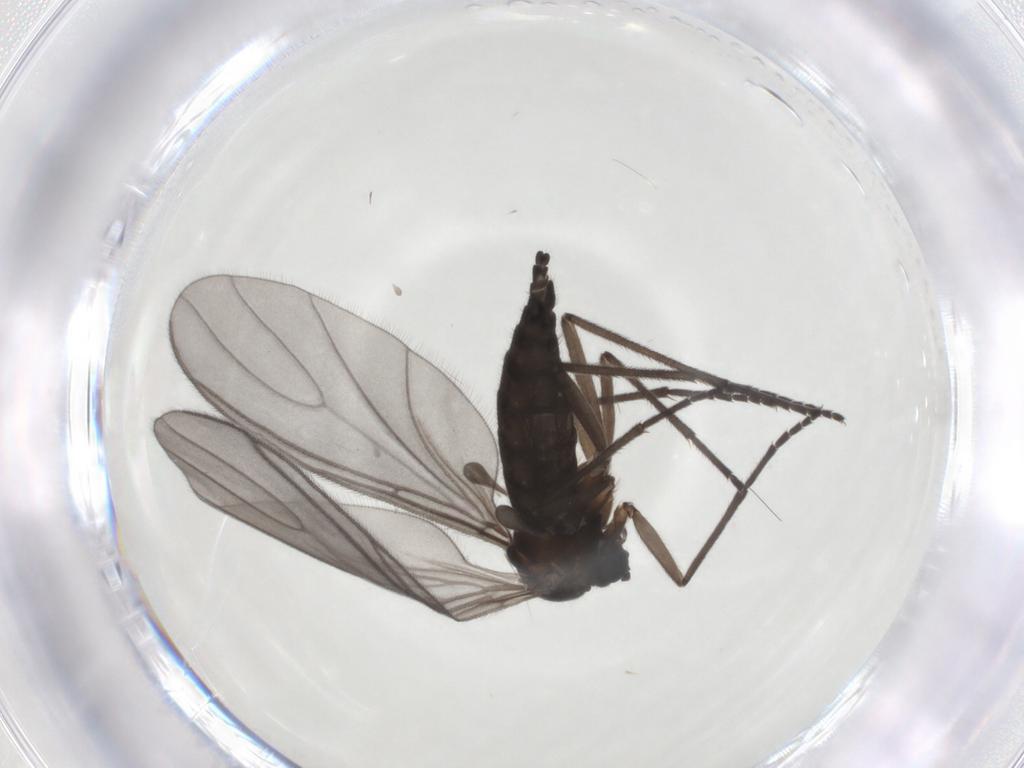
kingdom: Animalia
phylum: Arthropoda
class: Insecta
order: Diptera
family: Sciaridae
